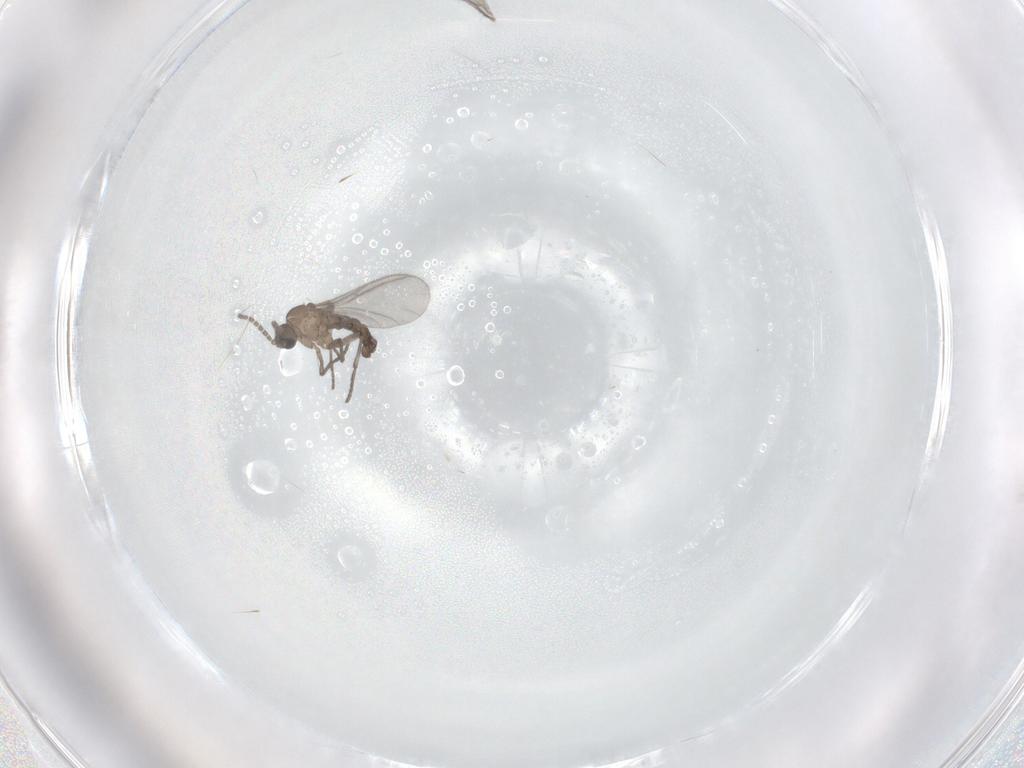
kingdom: Animalia
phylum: Arthropoda
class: Insecta
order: Diptera
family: Sciaridae
